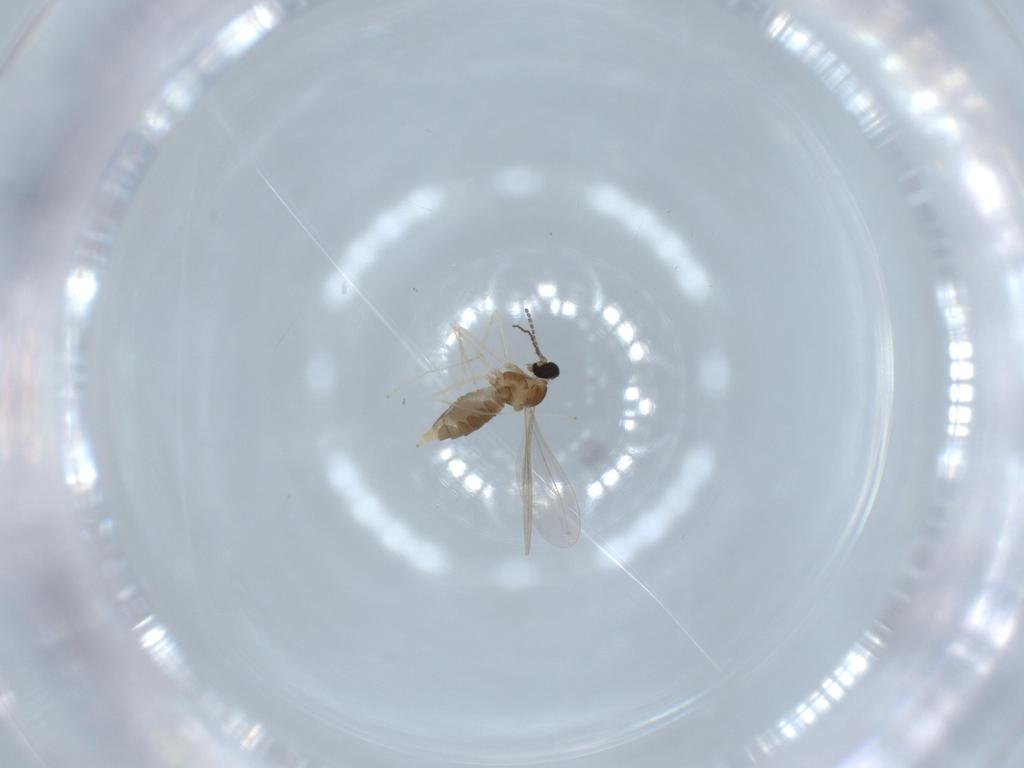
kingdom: Animalia
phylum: Arthropoda
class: Insecta
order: Diptera
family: Cecidomyiidae
